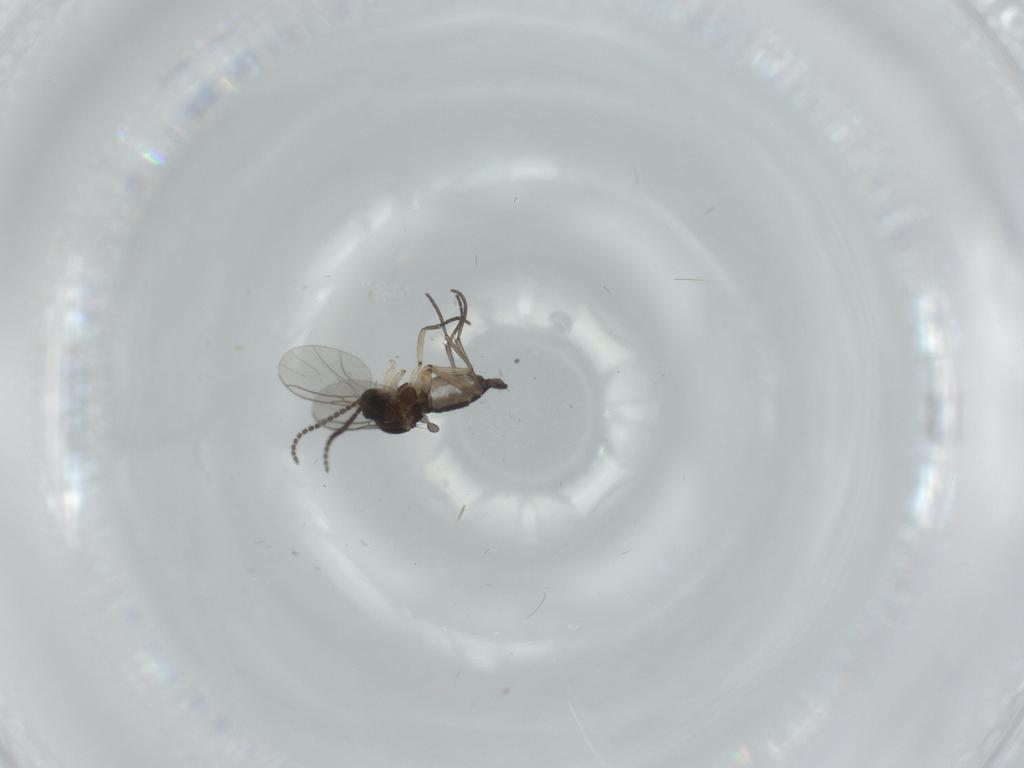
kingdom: Animalia
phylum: Arthropoda
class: Insecta
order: Diptera
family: Sciaridae
